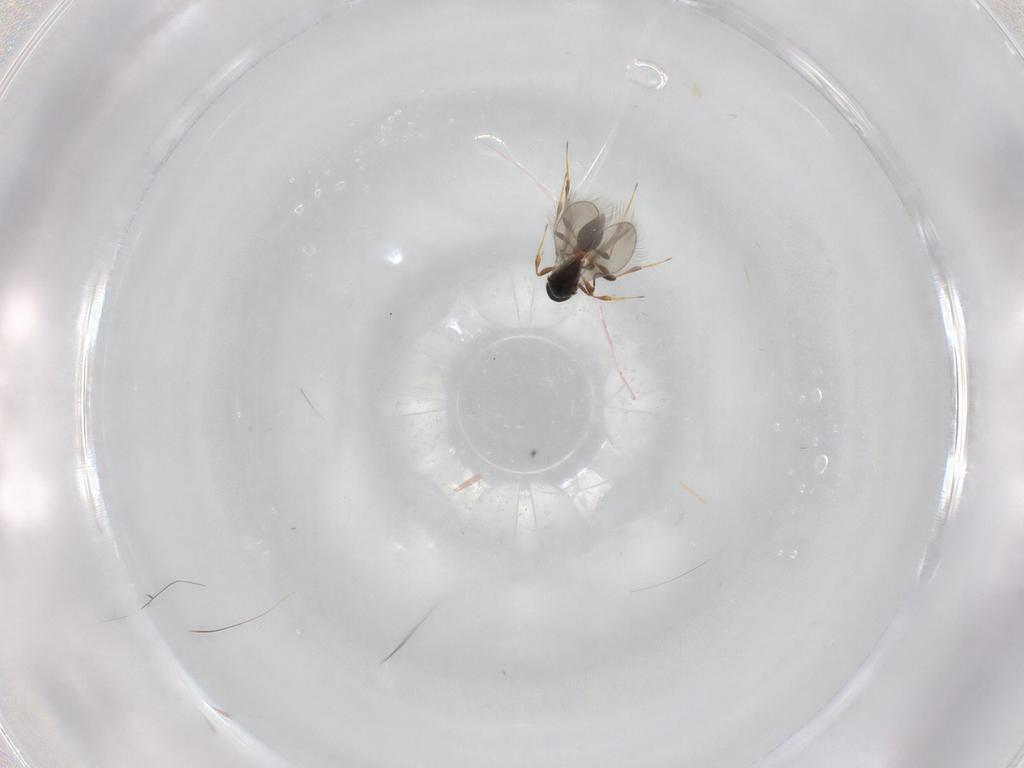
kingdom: Animalia
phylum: Arthropoda
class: Insecta
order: Hymenoptera
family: Platygastridae
